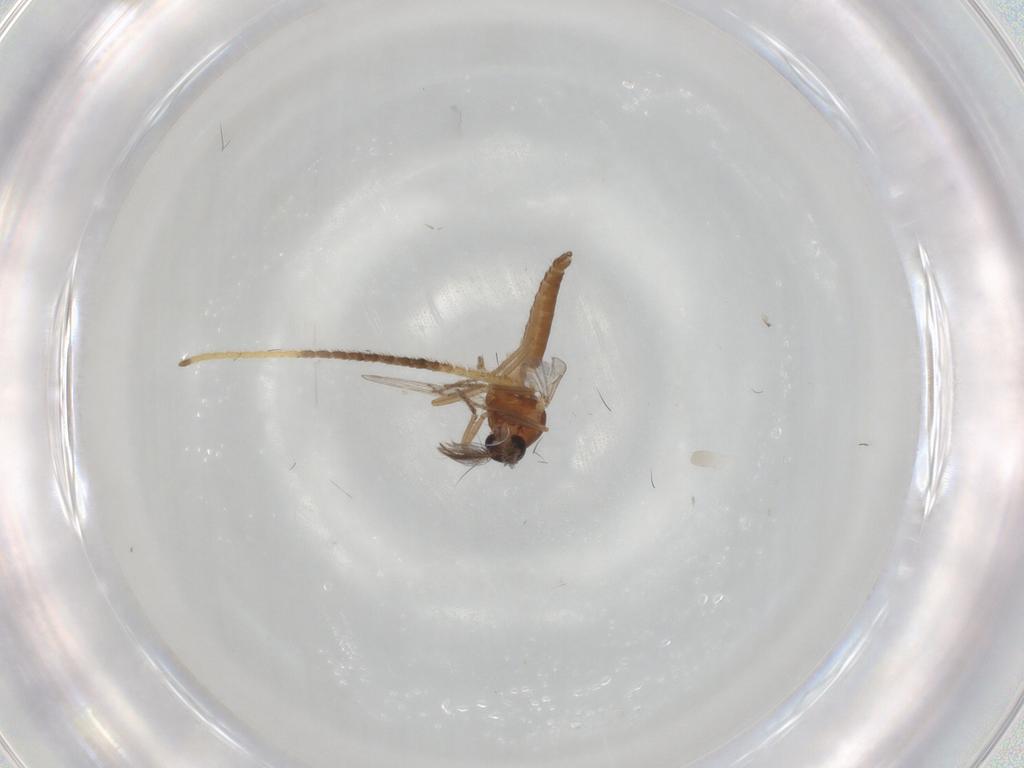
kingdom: Animalia
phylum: Arthropoda
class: Insecta
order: Diptera
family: Ceratopogonidae
